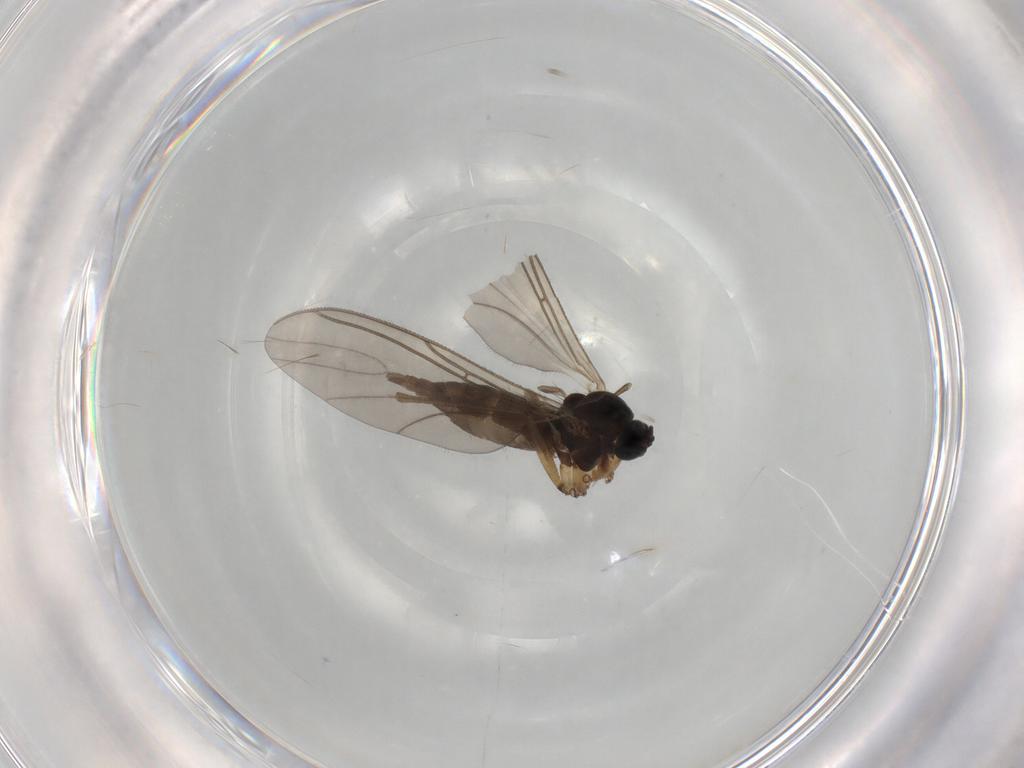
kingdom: Animalia
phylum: Arthropoda
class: Insecta
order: Diptera
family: Sciaridae
